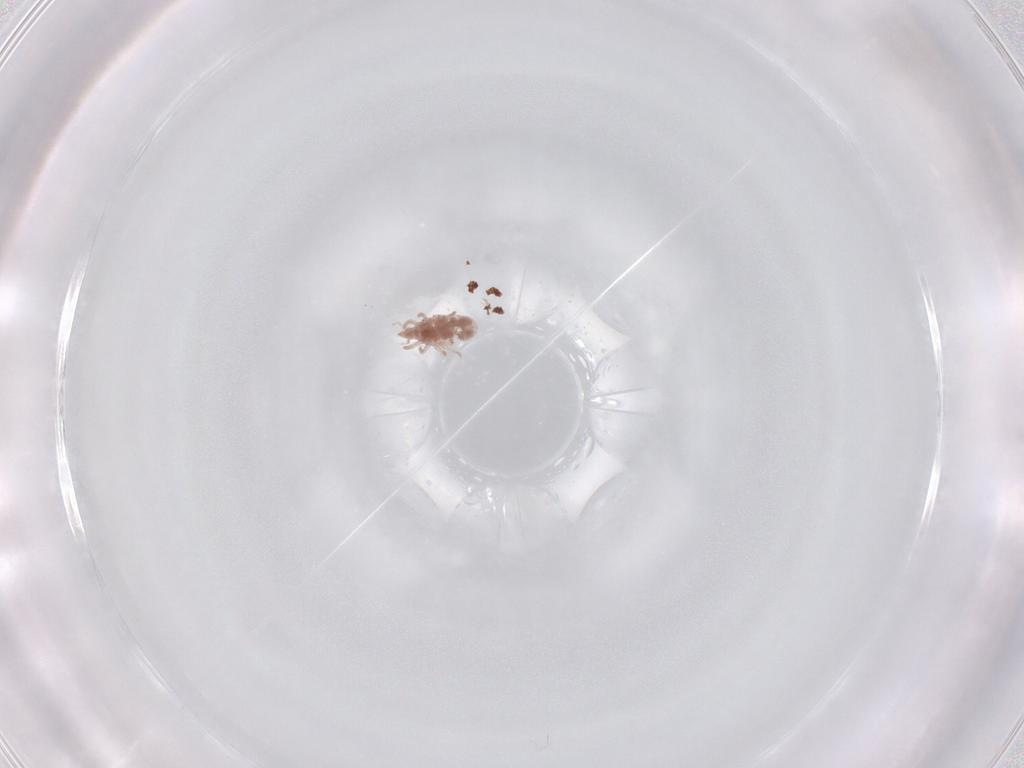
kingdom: Animalia
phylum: Arthropoda
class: Arachnida
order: Trombidiformes
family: Bdellidae
